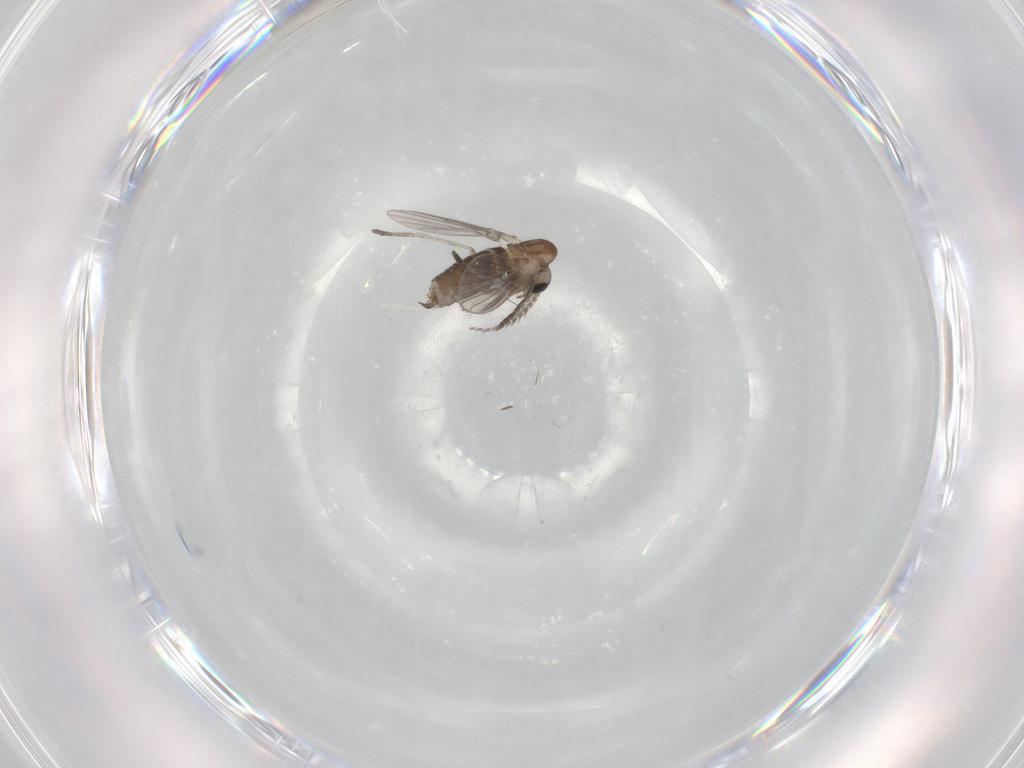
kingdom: Animalia
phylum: Arthropoda
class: Insecta
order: Diptera
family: Cecidomyiidae
